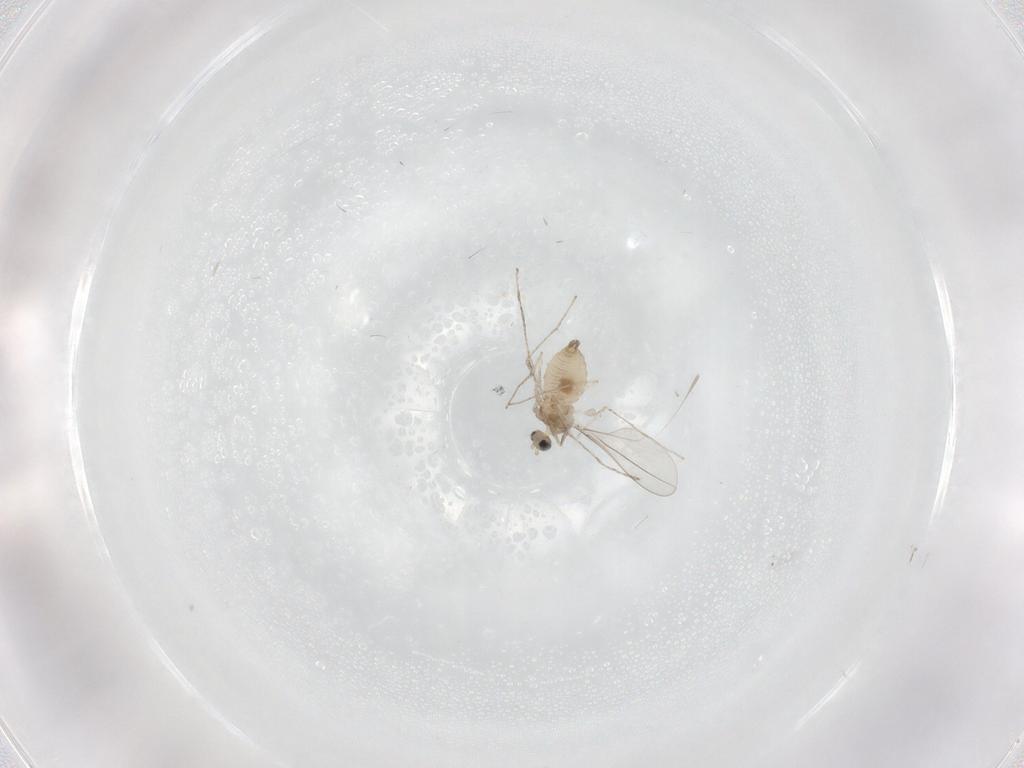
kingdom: Animalia
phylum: Arthropoda
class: Insecta
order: Diptera
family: Cecidomyiidae
